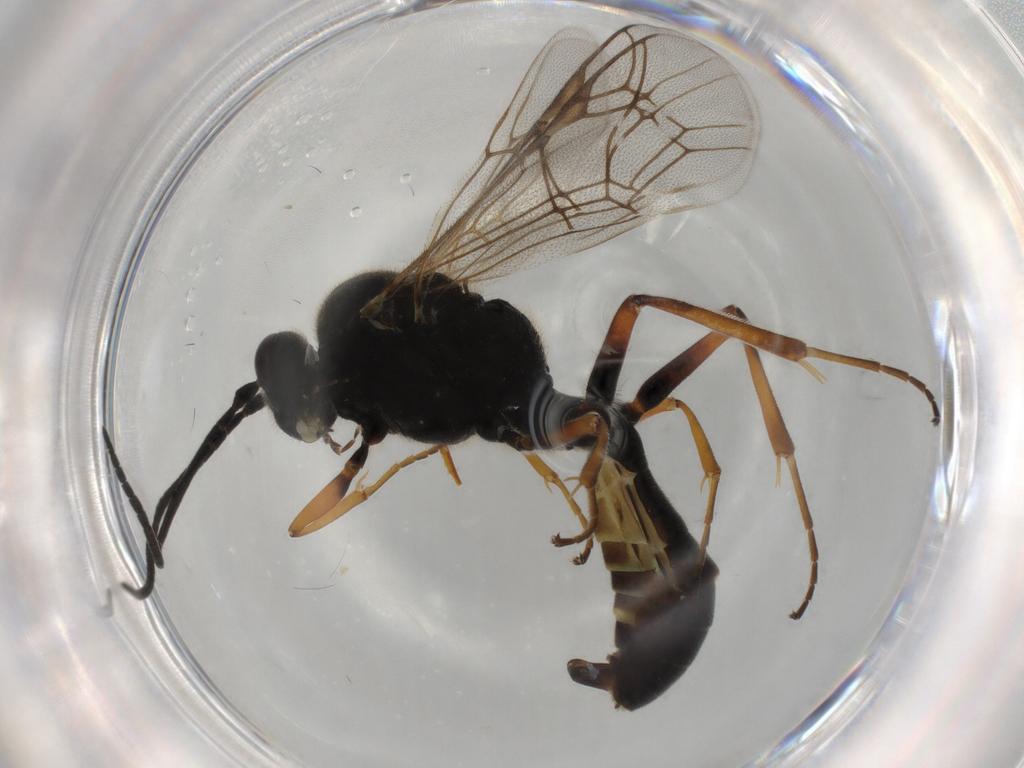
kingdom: Animalia
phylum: Arthropoda
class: Insecta
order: Hymenoptera
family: Ichneumonidae
